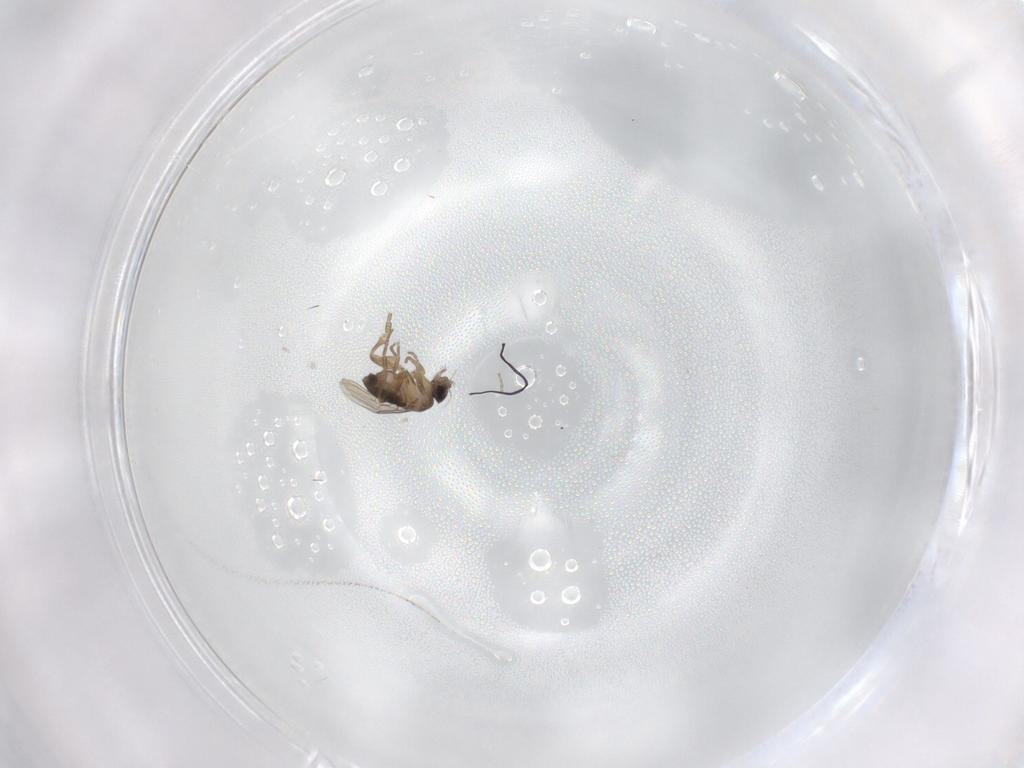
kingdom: Animalia
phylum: Arthropoda
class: Insecta
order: Diptera
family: Phoridae
